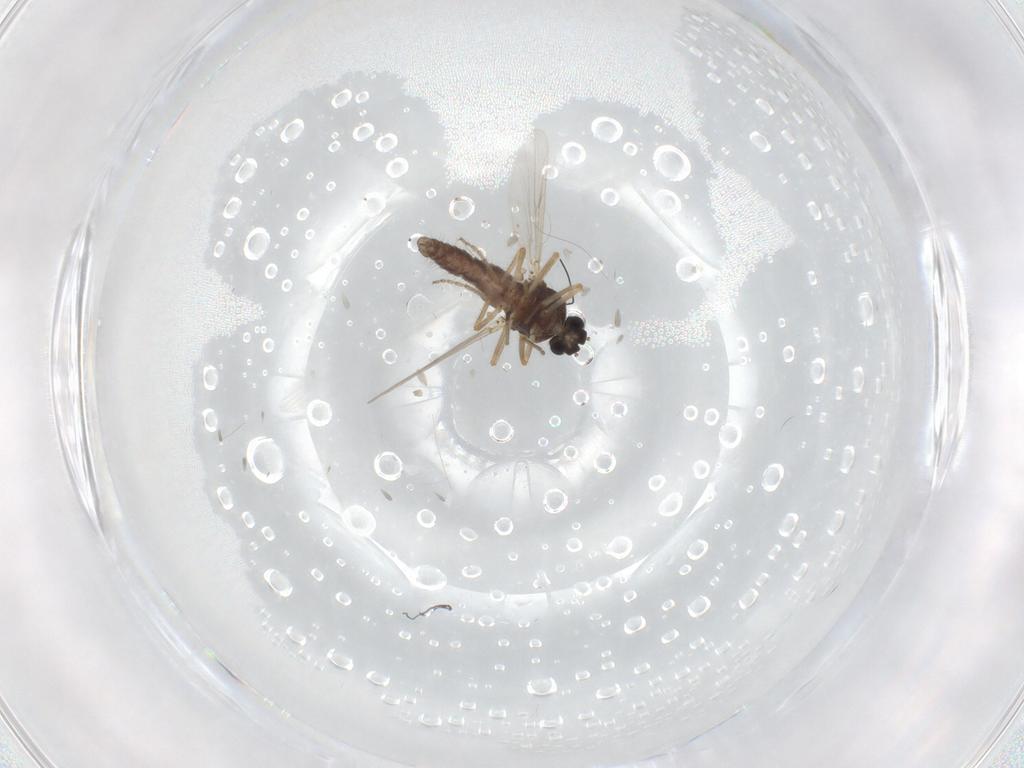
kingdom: Animalia
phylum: Arthropoda
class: Insecta
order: Diptera
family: Ceratopogonidae
